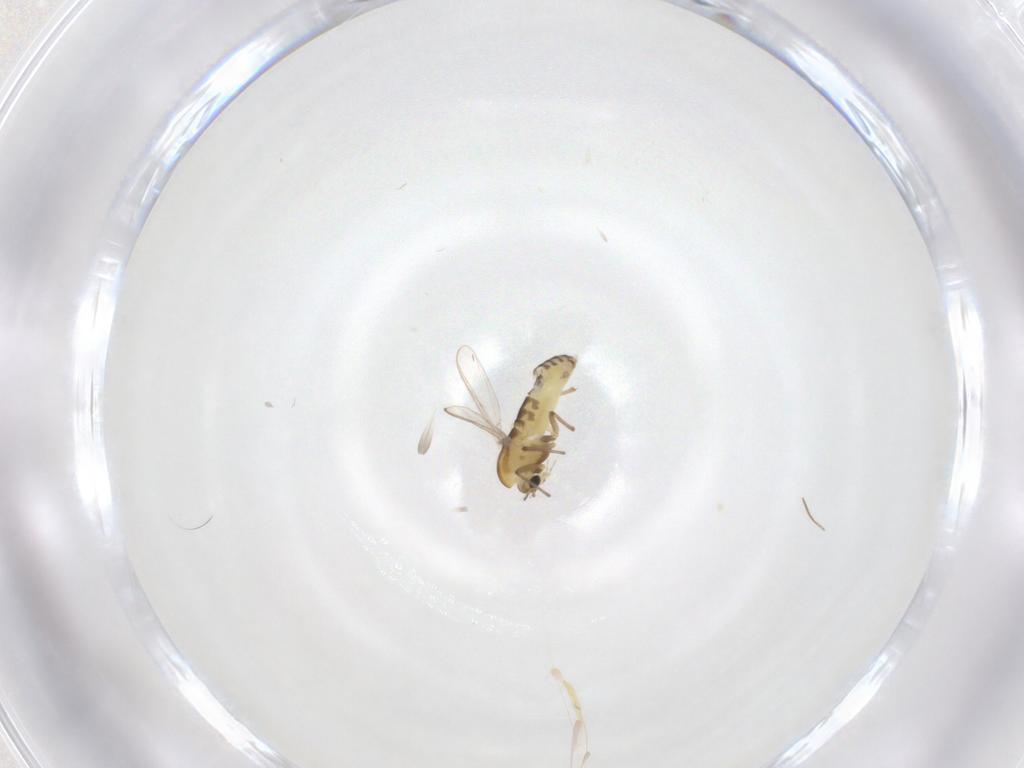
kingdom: Animalia
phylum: Arthropoda
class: Insecta
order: Diptera
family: Chironomidae
